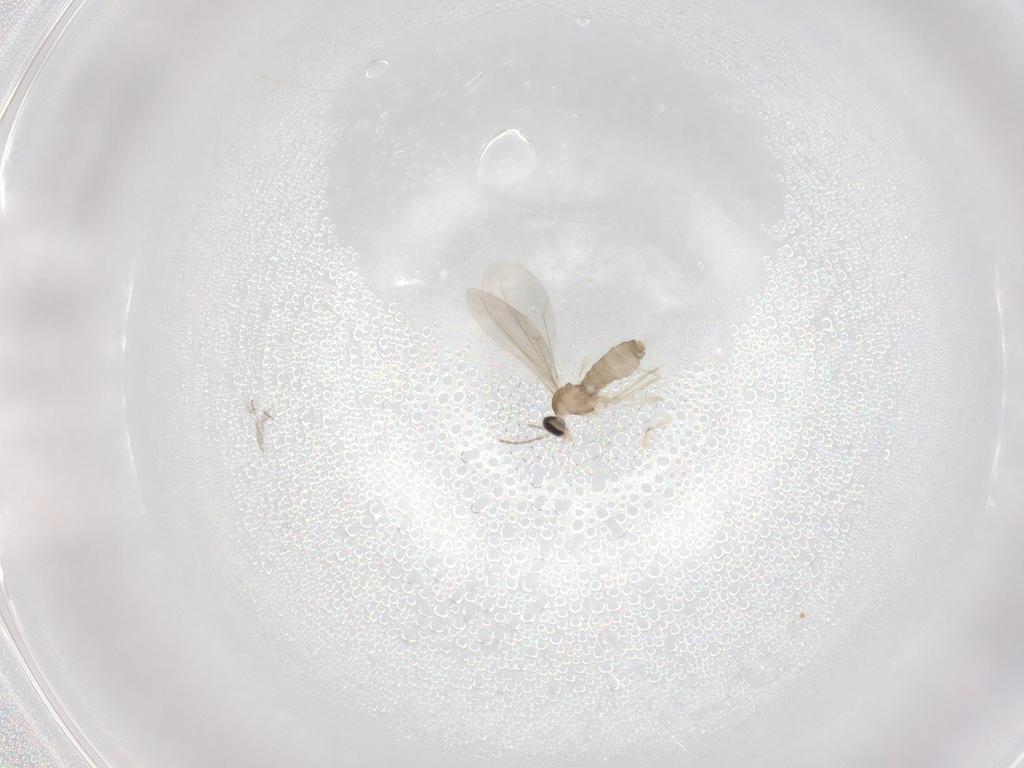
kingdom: Animalia
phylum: Arthropoda
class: Insecta
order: Diptera
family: Cecidomyiidae
